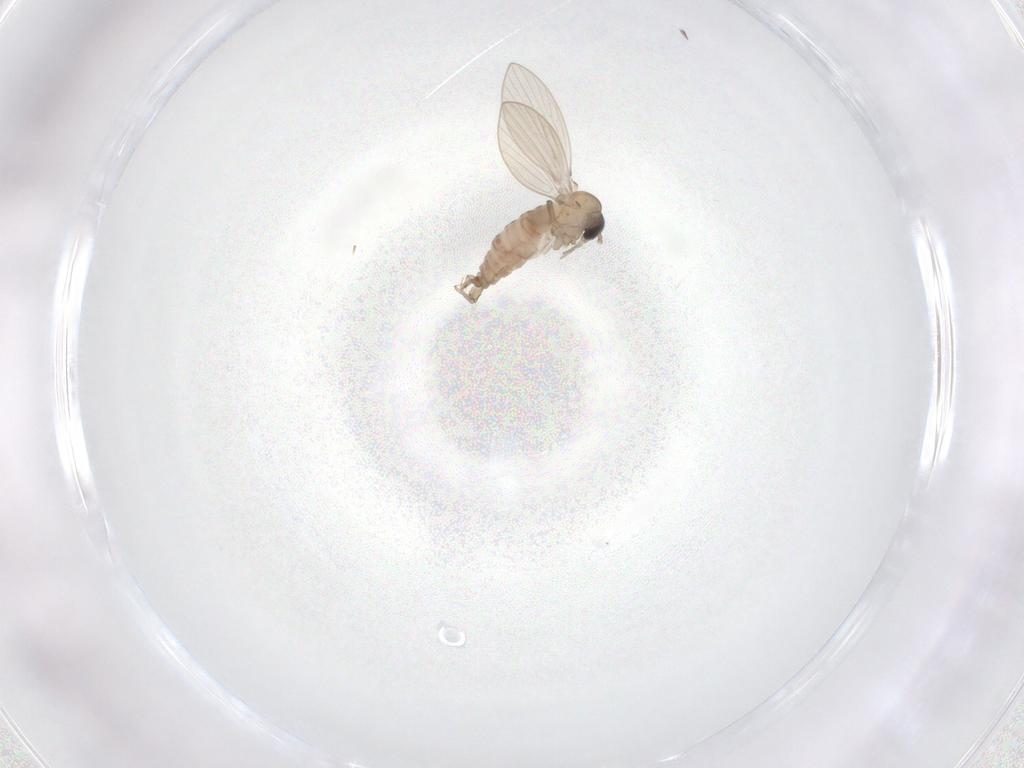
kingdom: Animalia
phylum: Arthropoda
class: Insecta
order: Diptera
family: Psychodidae
